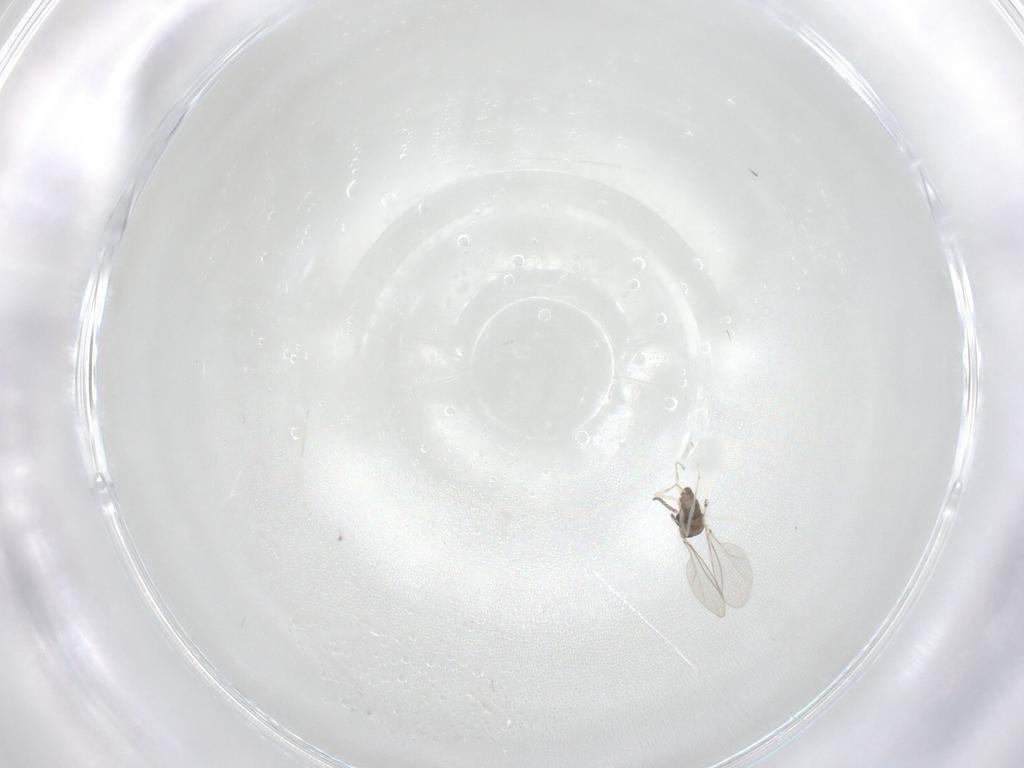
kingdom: Animalia
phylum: Arthropoda
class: Insecta
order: Diptera
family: Cecidomyiidae
